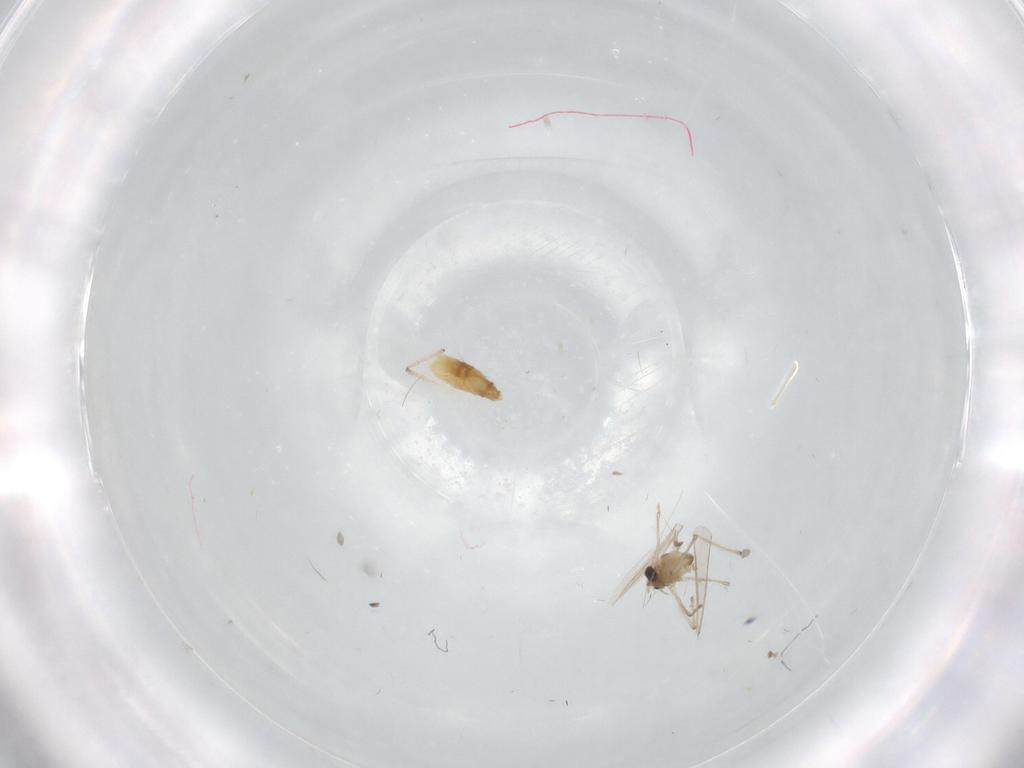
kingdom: Animalia
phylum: Arthropoda
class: Insecta
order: Diptera
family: Chironomidae
